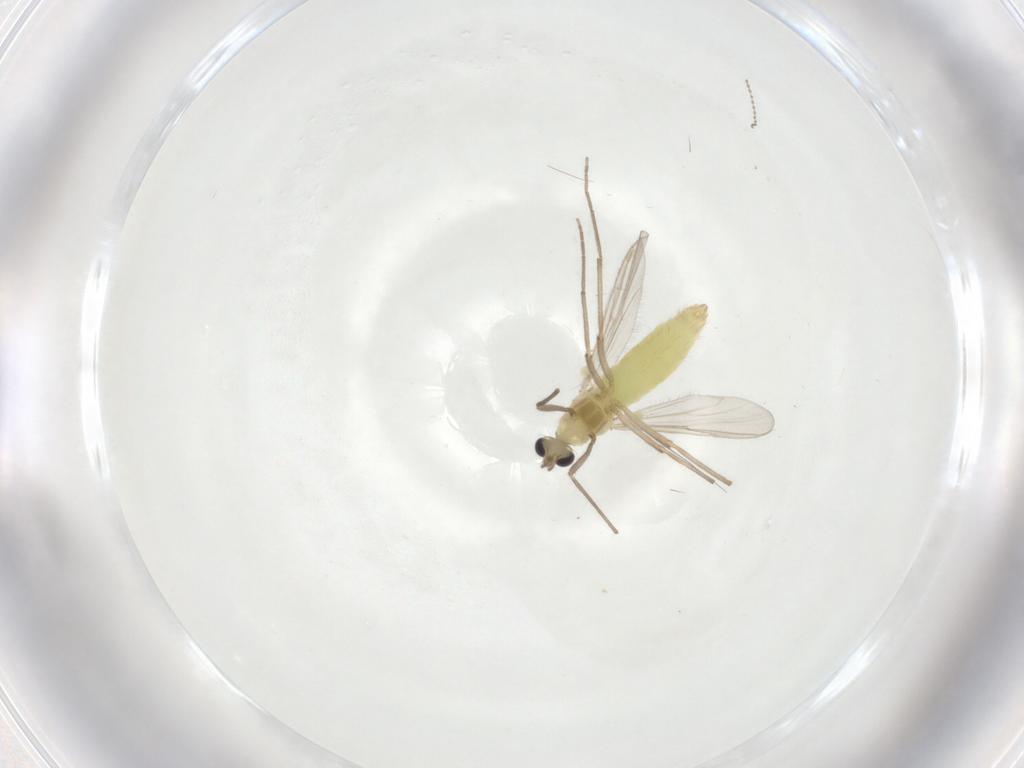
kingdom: Animalia
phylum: Arthropoda
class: Insecta
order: Diptera
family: Chironomidae
